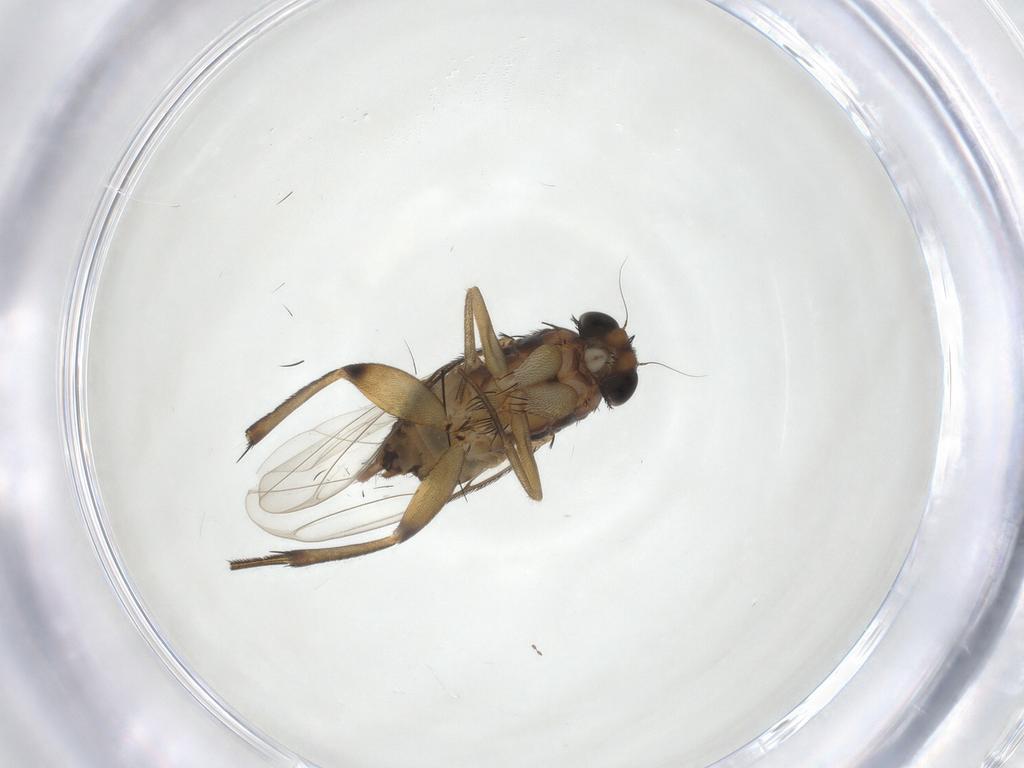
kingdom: Animalia
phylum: Arthropoda
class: Insecta
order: Diptera
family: Phoridae
